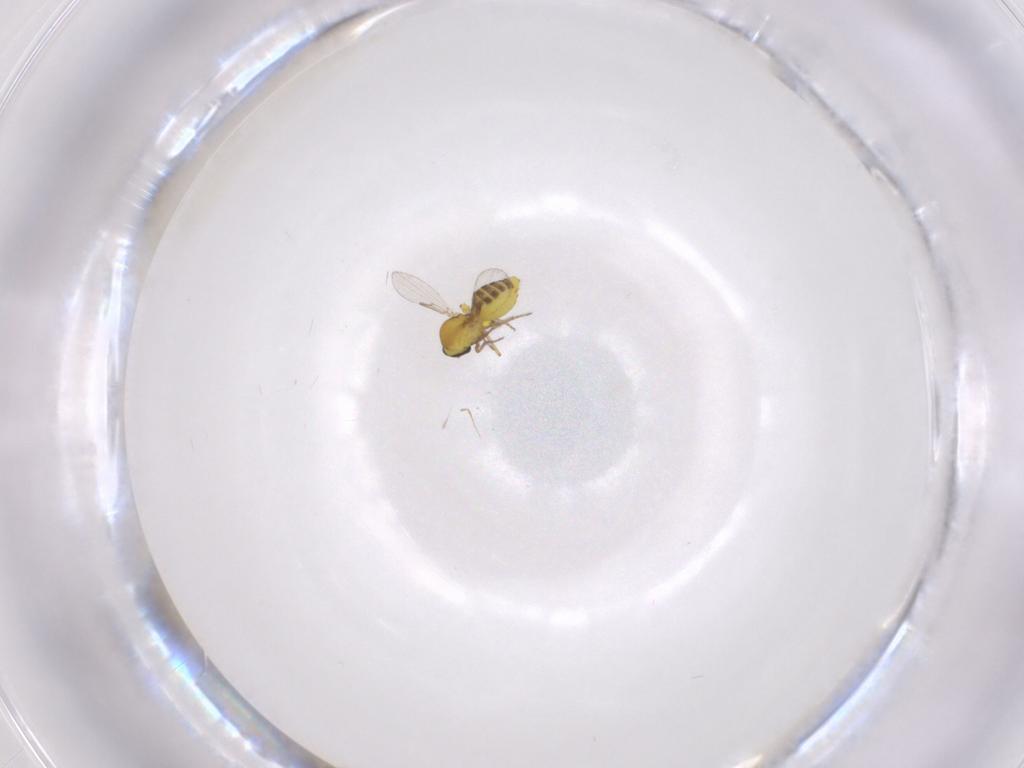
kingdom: Animalia
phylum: Arthropoda
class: Insecta
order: Diptera
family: Ceratopogonidae
